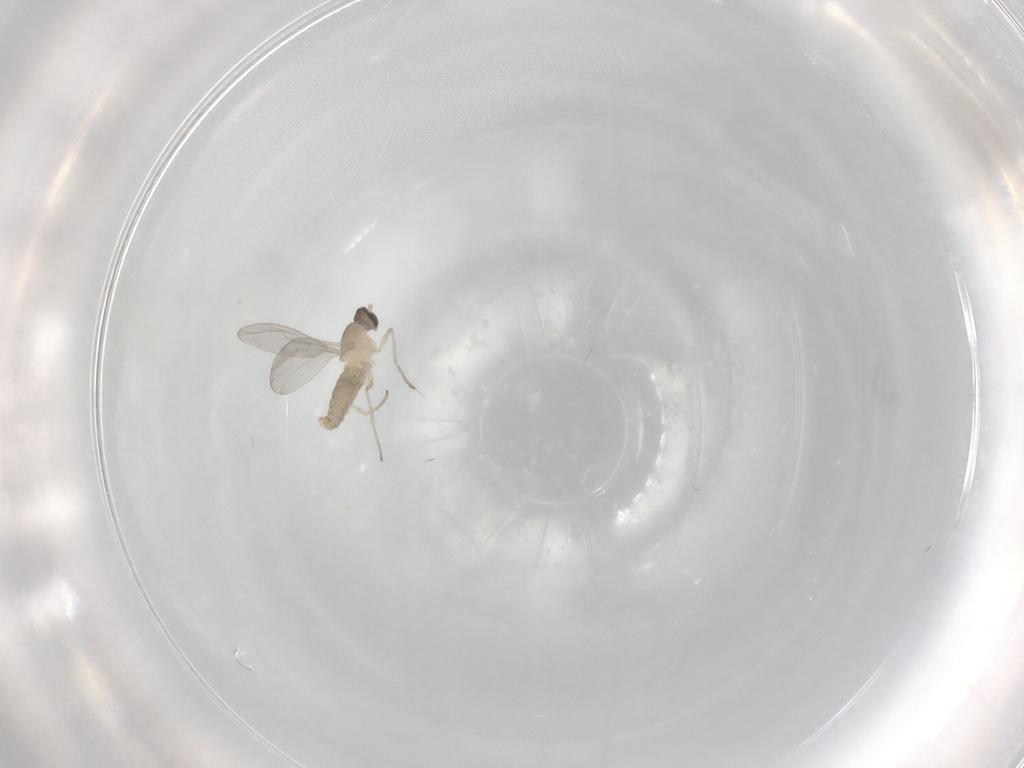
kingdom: Animalia
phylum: Arthropoda
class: Insecta
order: Diptera
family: Cecidomyiidae
